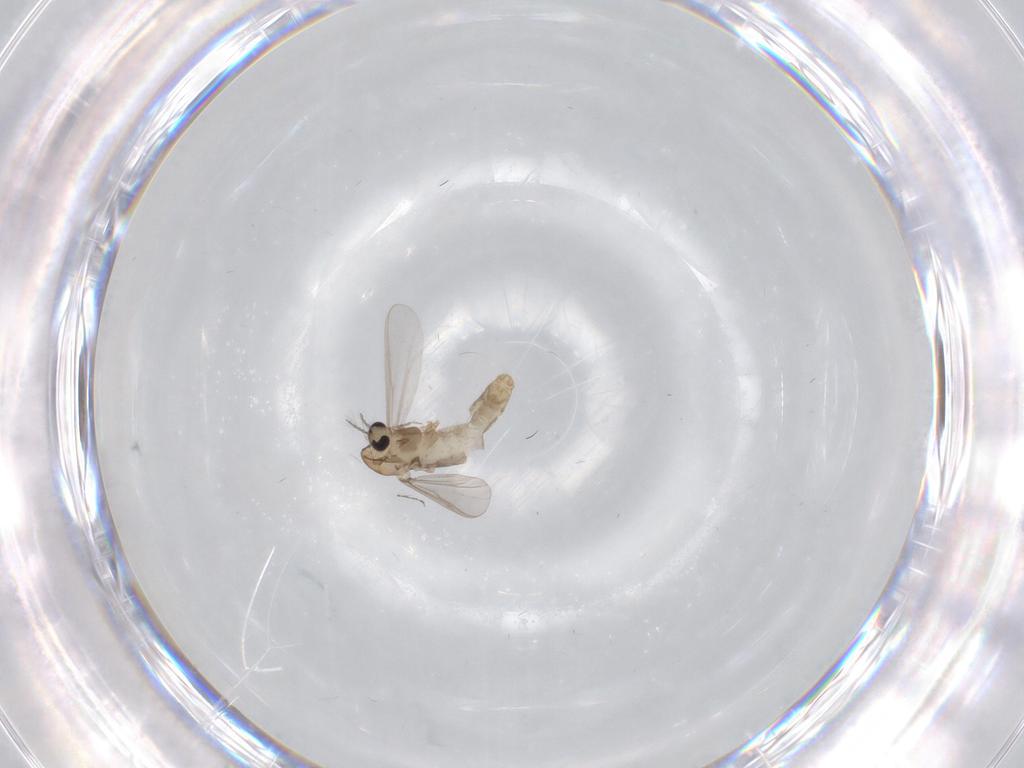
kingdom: Animalia
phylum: Arthropoda
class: Insecta
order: Diptera
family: Chironomidae
